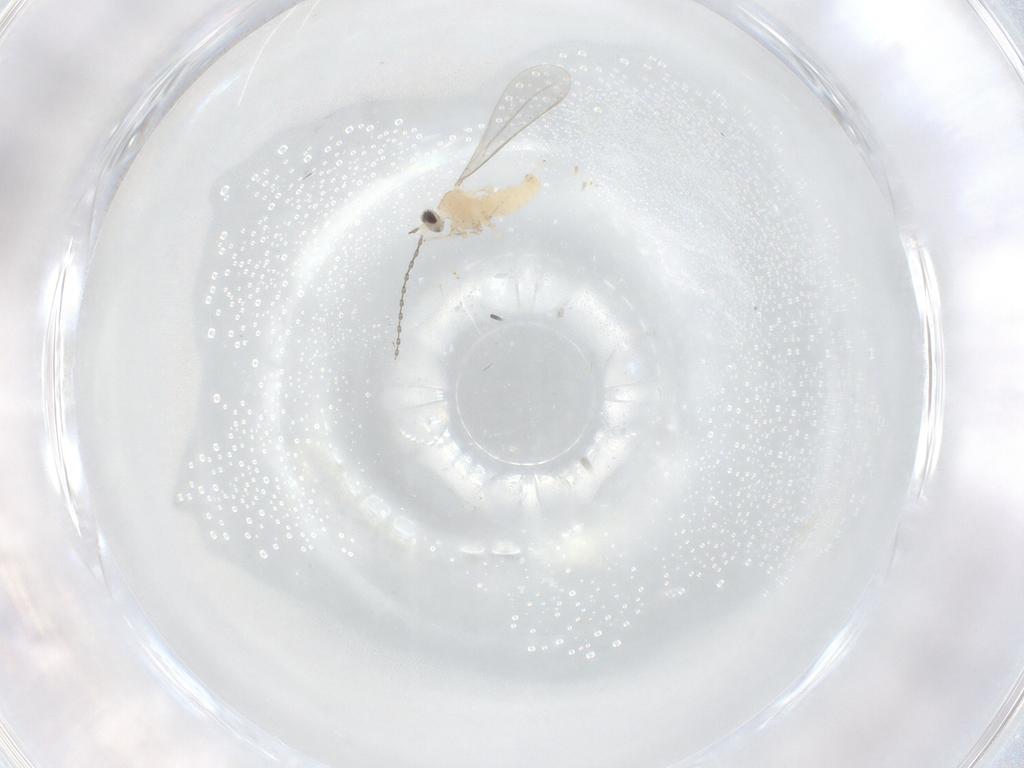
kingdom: Animalia
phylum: Arthropoda
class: Insecta
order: Diptera
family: Cecidomyiidae
